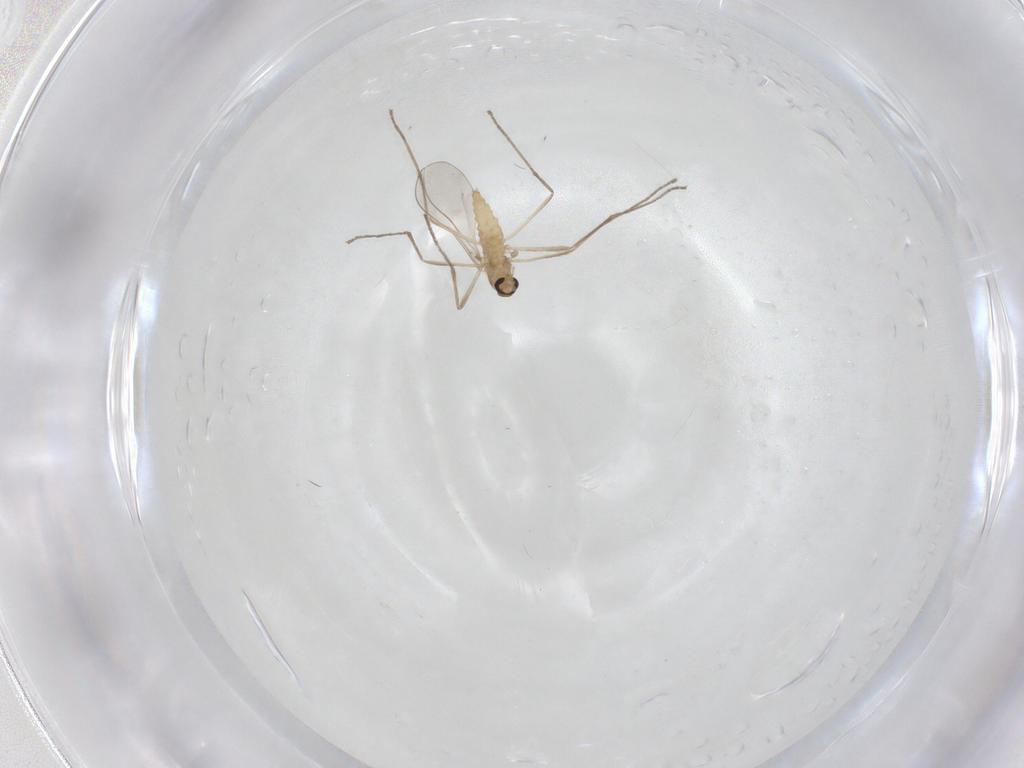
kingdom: Animalia
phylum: Arthropoda
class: Insecta
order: Diptera
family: Cecidomyiidae
